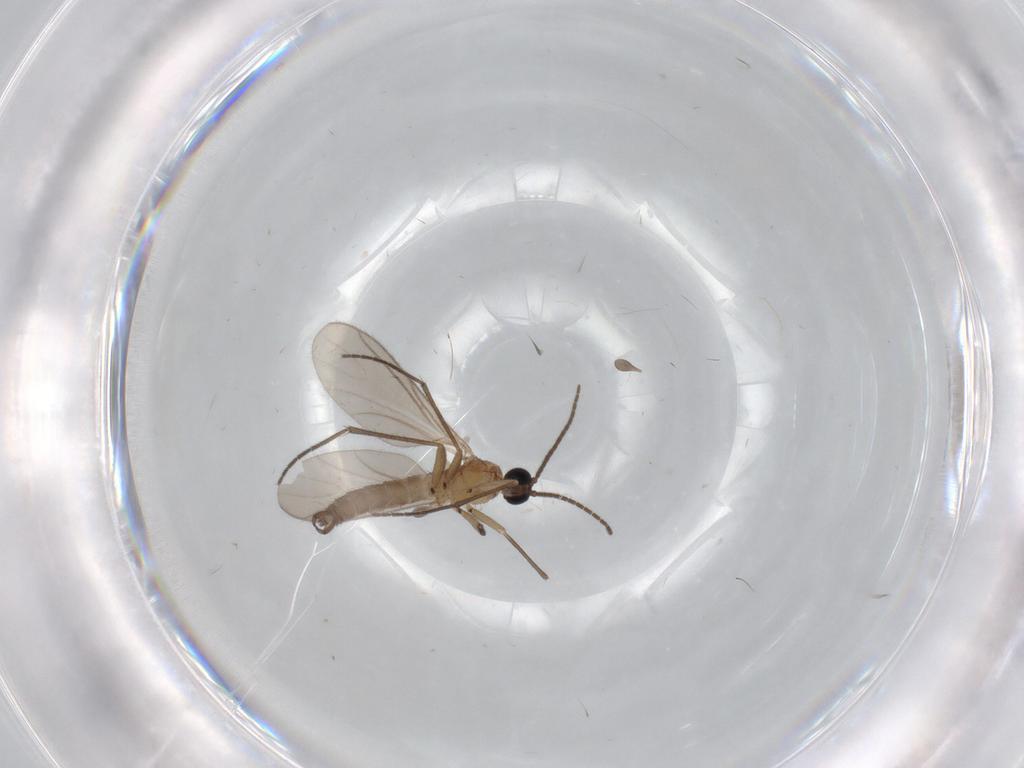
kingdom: Animalia
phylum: Arthropoda
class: Insecta
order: Diptera
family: Sciaridae
